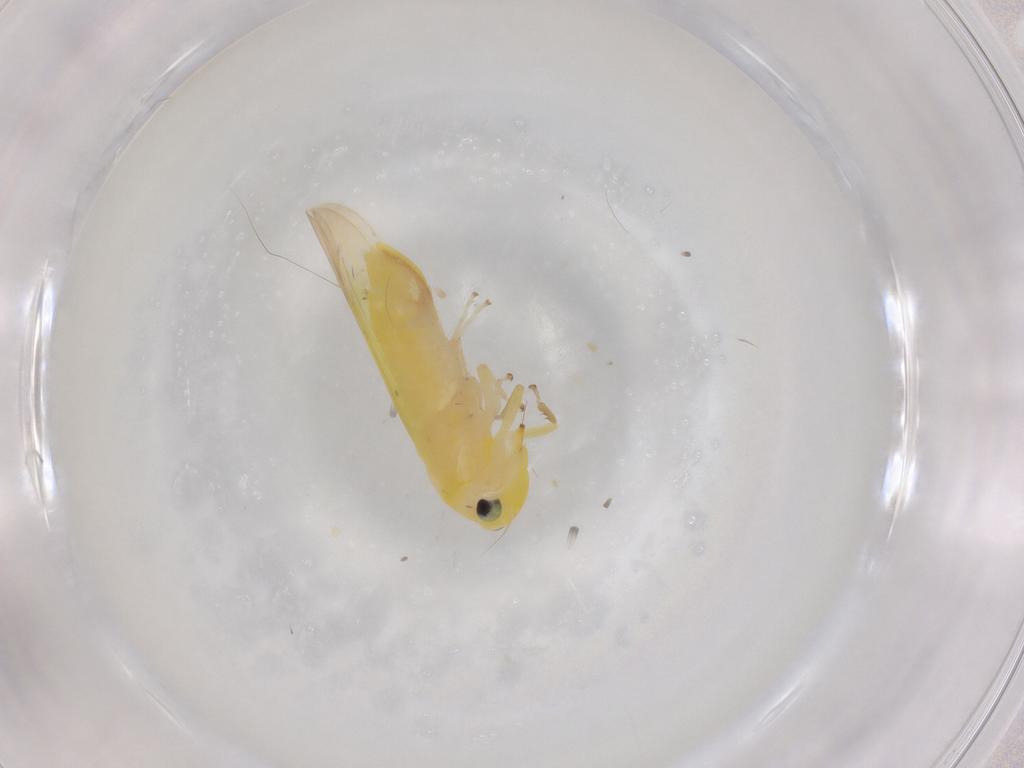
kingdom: Animalia
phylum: Arthropoda
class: Insecta
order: Hemiptera
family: Cicadellidae
